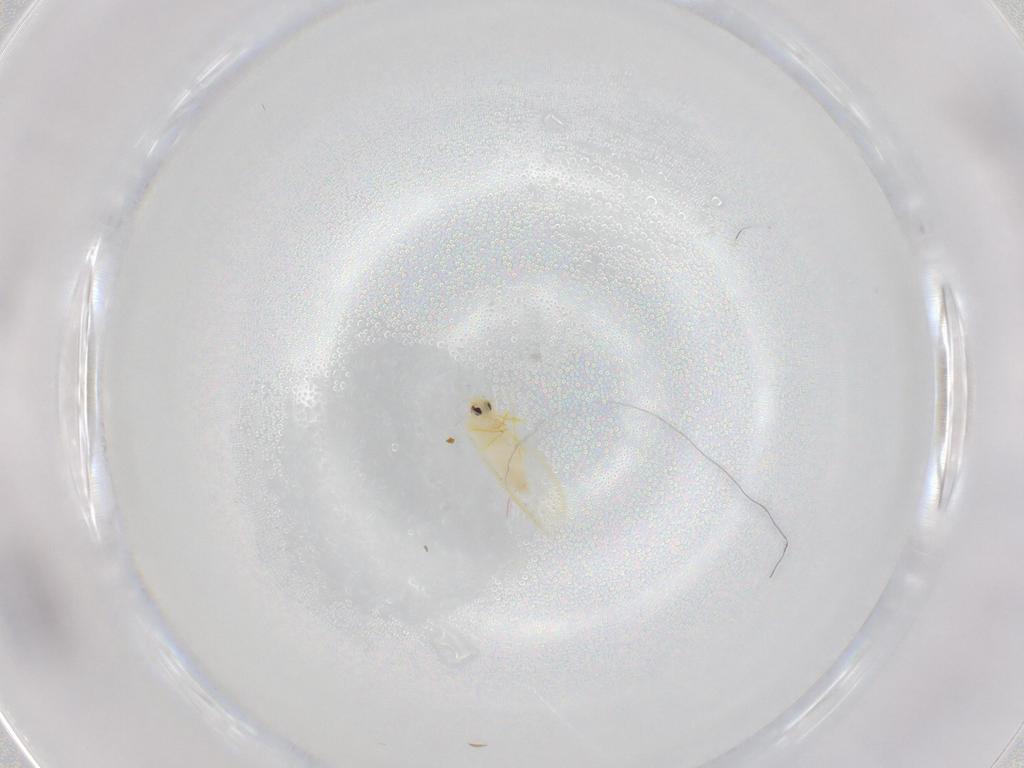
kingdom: Animalia
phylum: Arthropoda
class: Insecta
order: Hemiptera
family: Aleyrodidae
